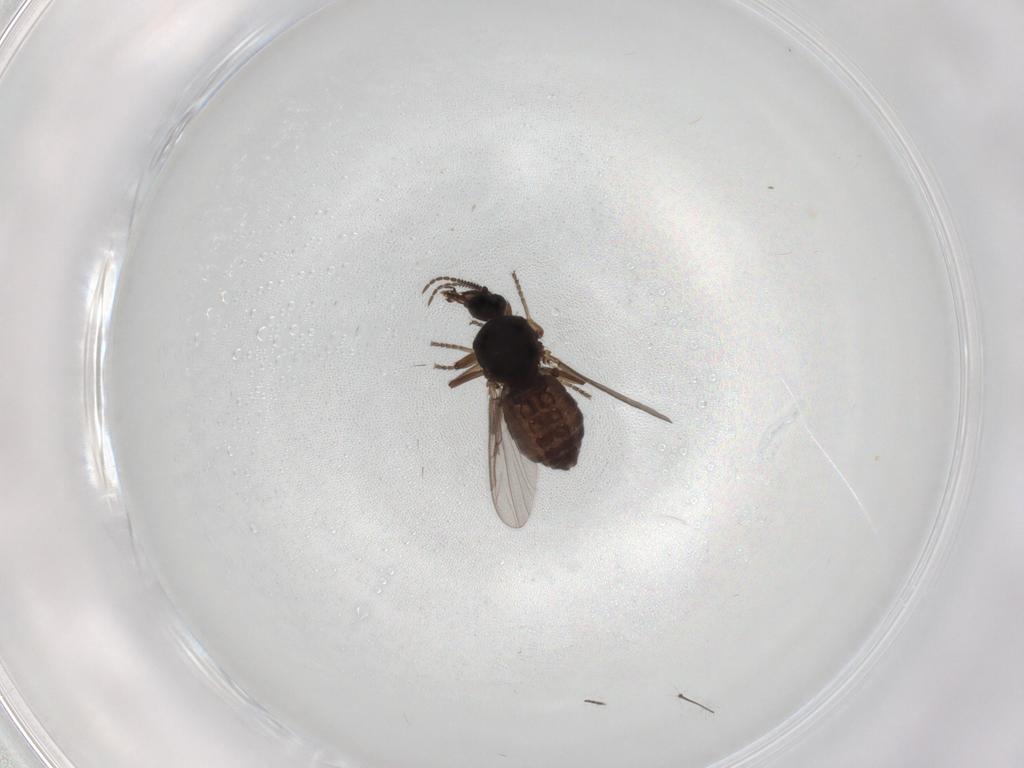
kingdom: Animalia
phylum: Arthropoda
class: Insecta
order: Diptera
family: Ceratopogonidae
